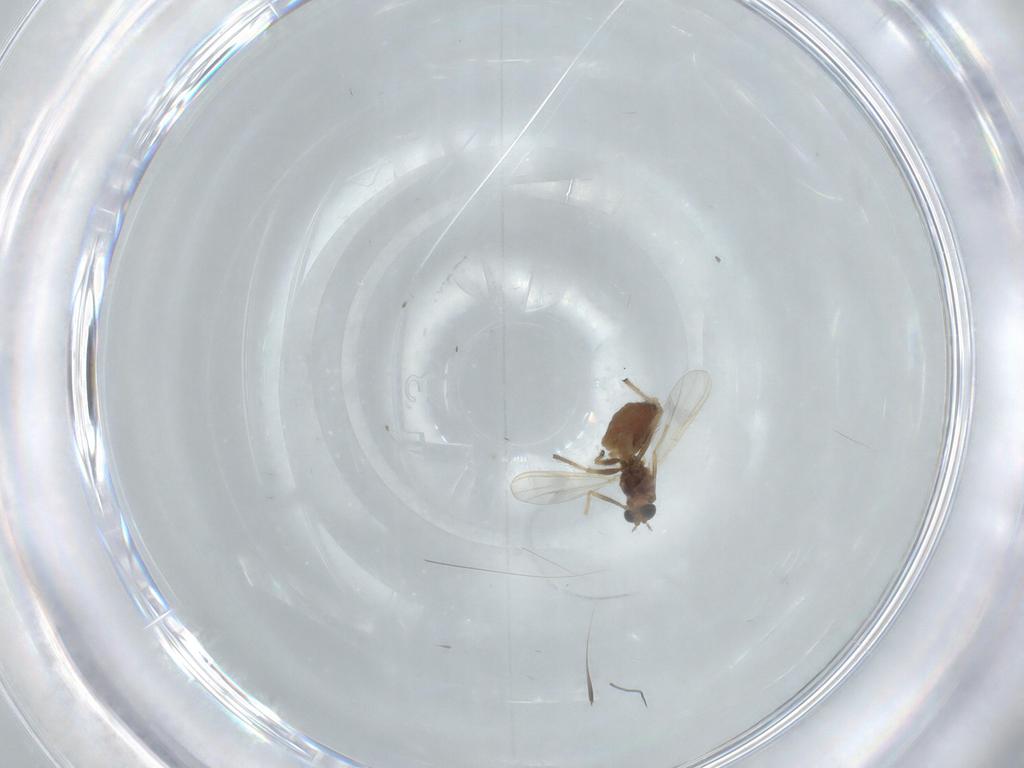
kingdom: Animalia
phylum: Arthropoda
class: Insecta
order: Diptera
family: Chironomidae
